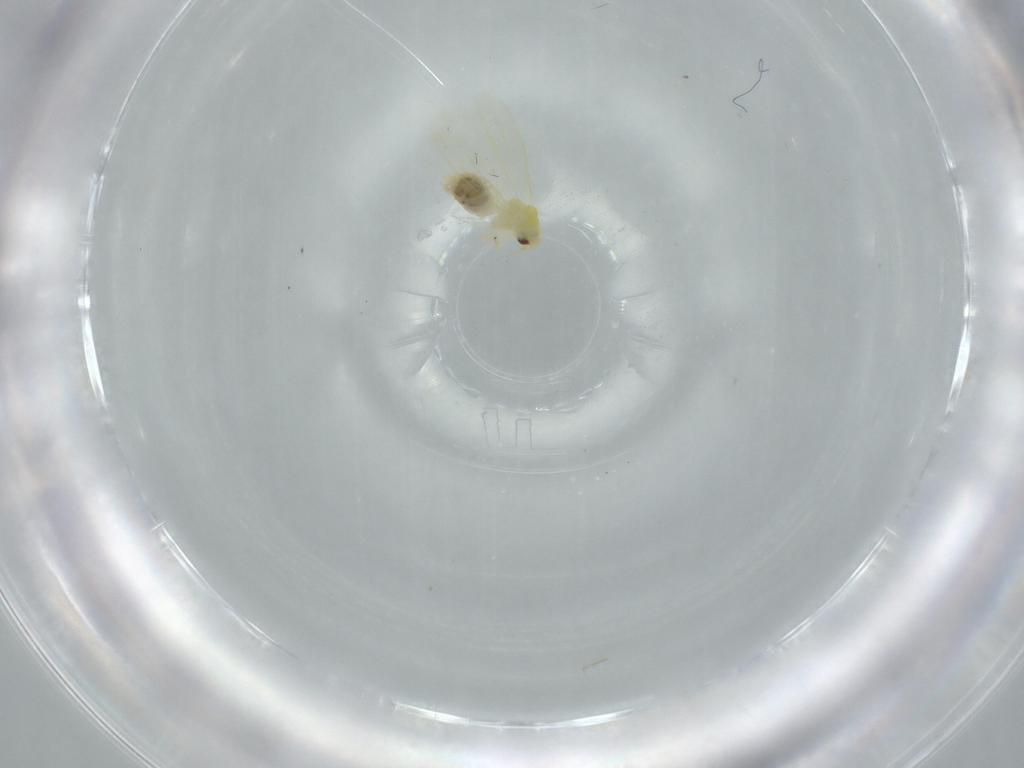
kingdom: Animalia
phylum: Arthropoda
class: Insecta
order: Hemiptera
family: Aleyrodidae
